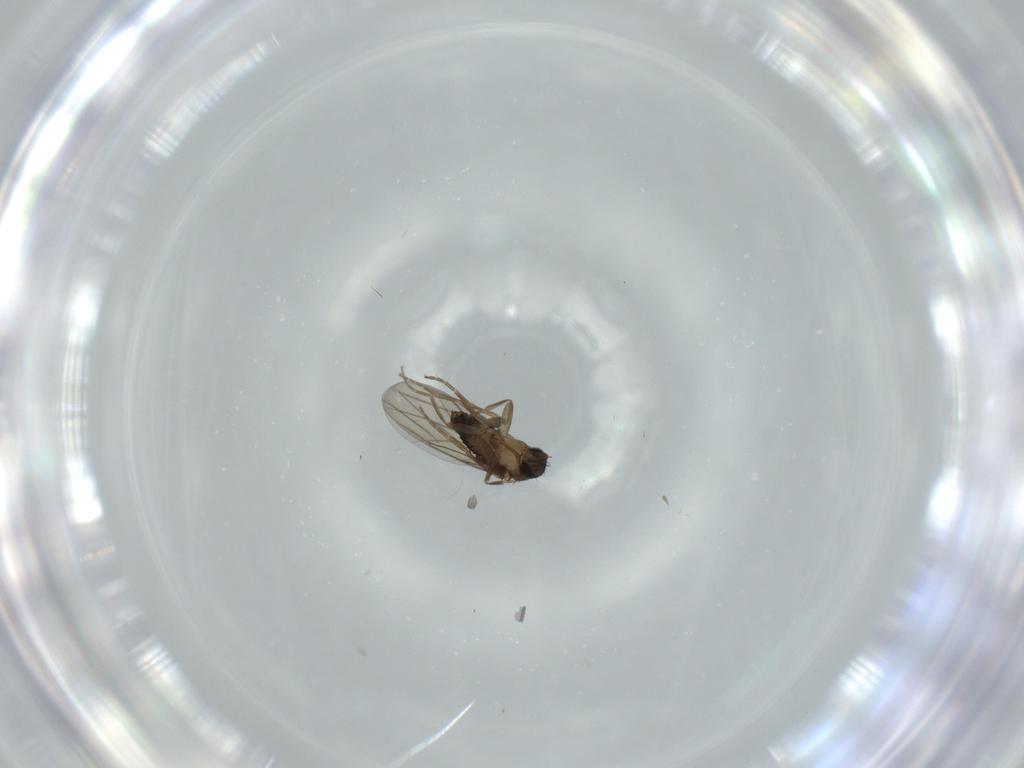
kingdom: Animalia
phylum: Arthropoda
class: Insecta
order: Diptera
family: Phoridae
